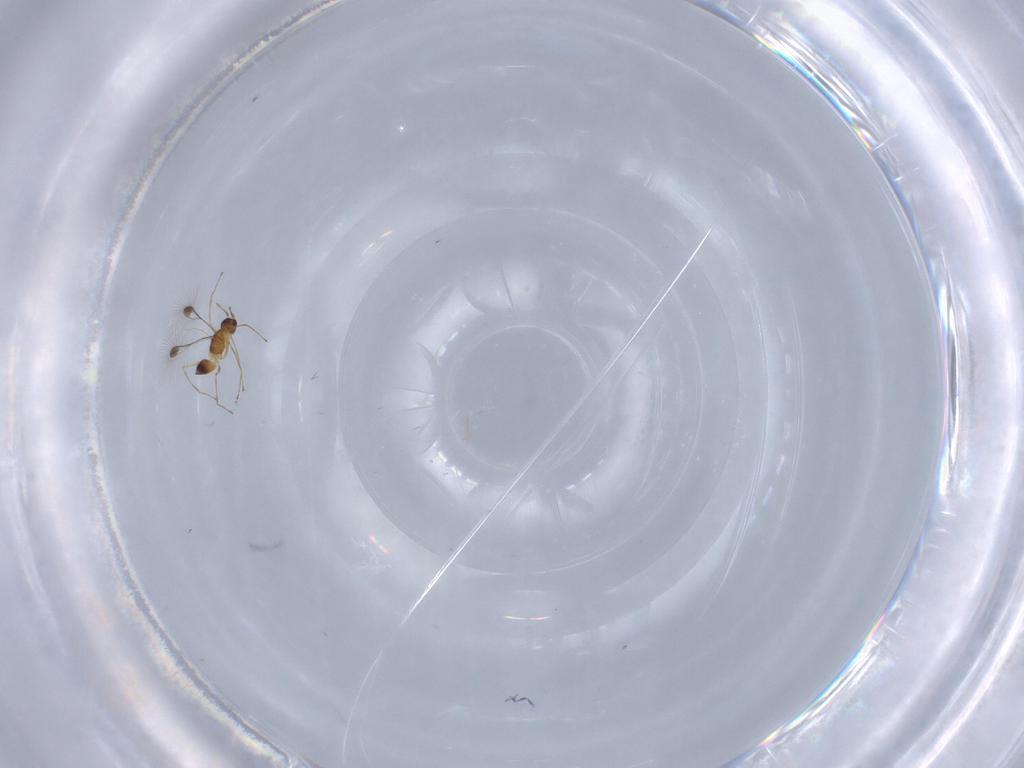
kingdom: Animalia
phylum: Arthropoda
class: Insecta
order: Hymenoptera
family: Mymaridae
